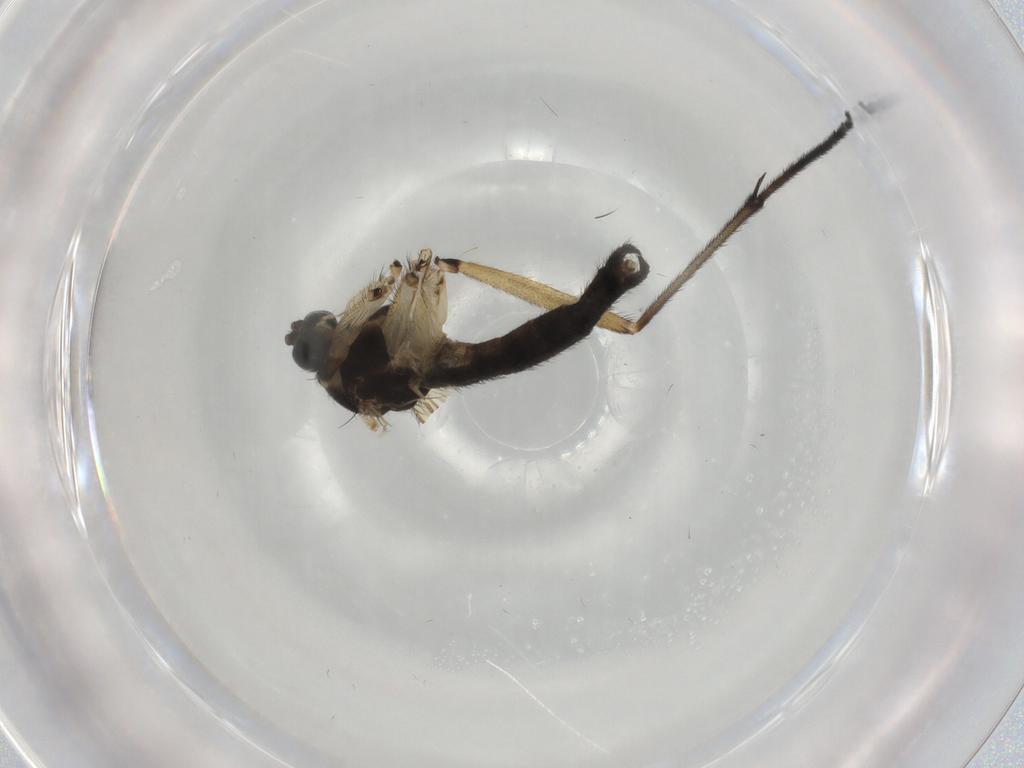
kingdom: Animalia
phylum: Arthropoda
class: Insecta
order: Diptera
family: Sciaridae
